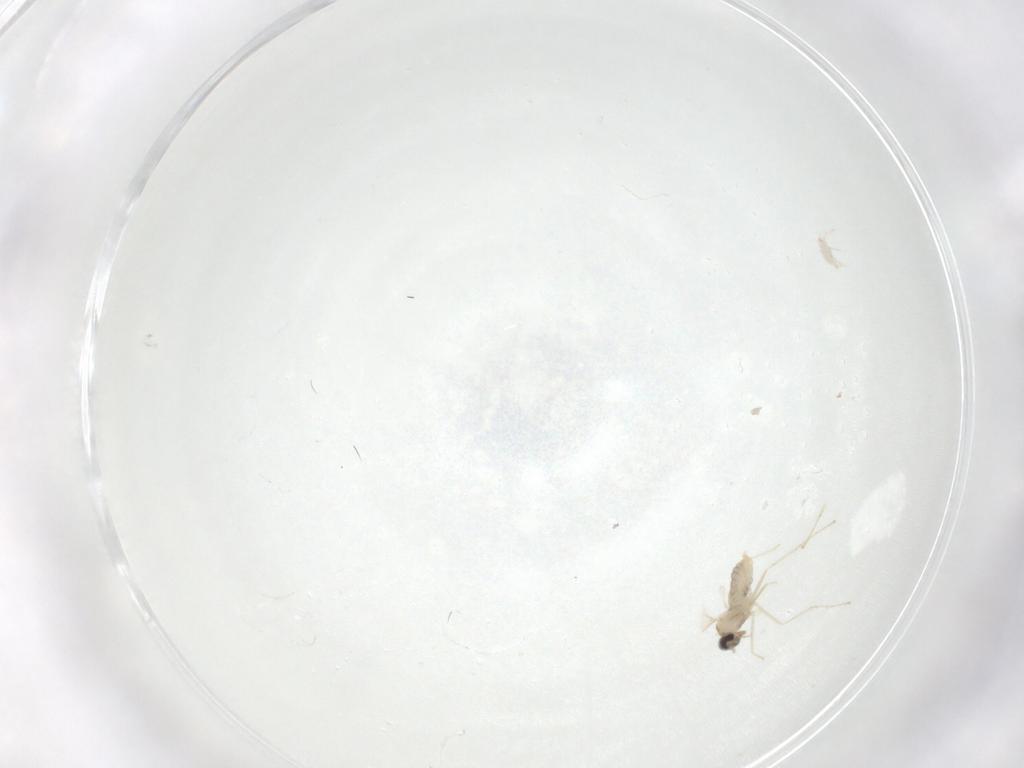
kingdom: Animalia
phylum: Arthropoda
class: Insecta
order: Diptera
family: Cecidomyiidae
